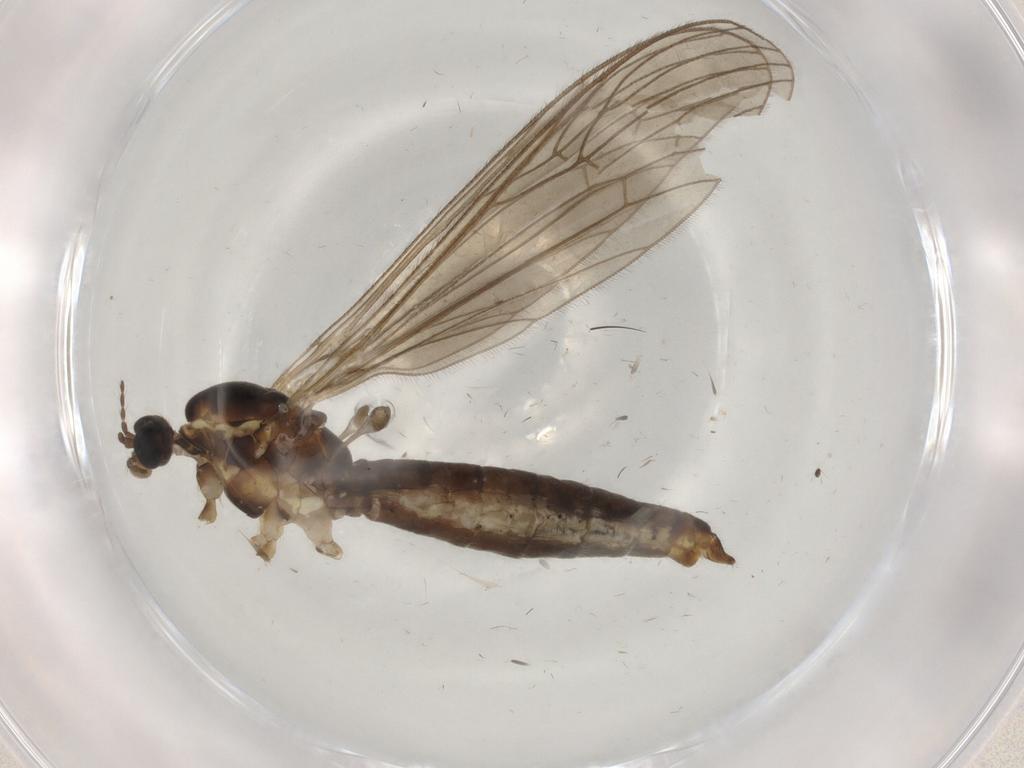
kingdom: Animalia
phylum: Arthropoda
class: Insecta
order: Diptera
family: Limoniidae
